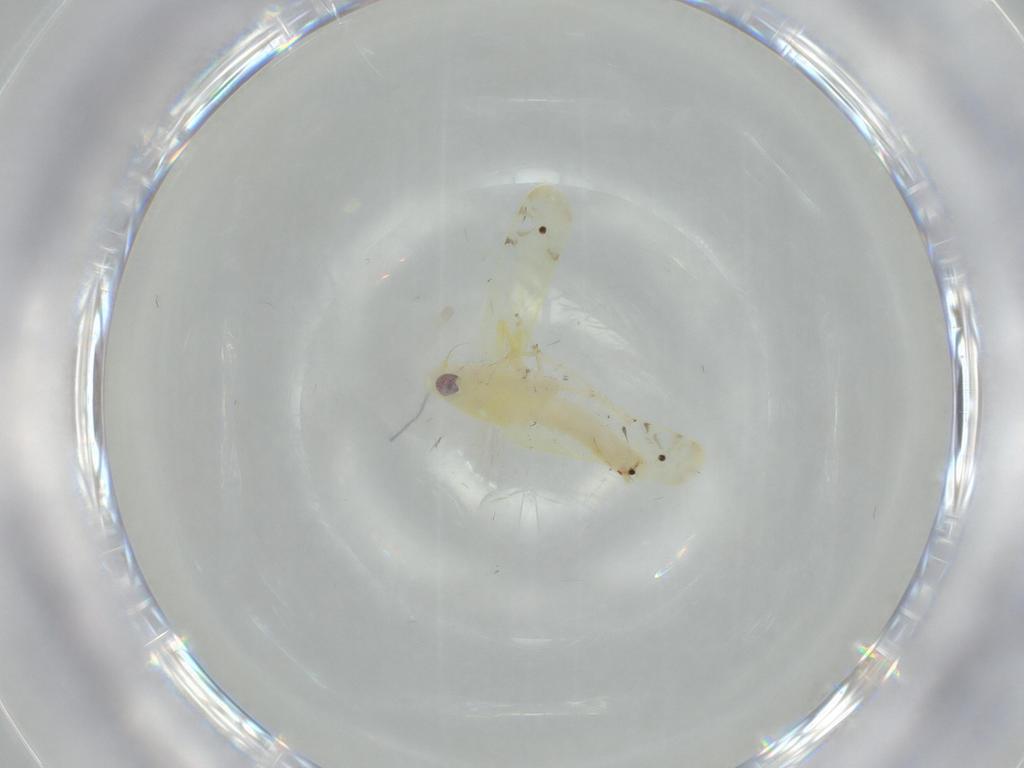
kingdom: Animalia
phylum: Arthropoda
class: Insecta
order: Hemiptera
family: Cicadellidae
